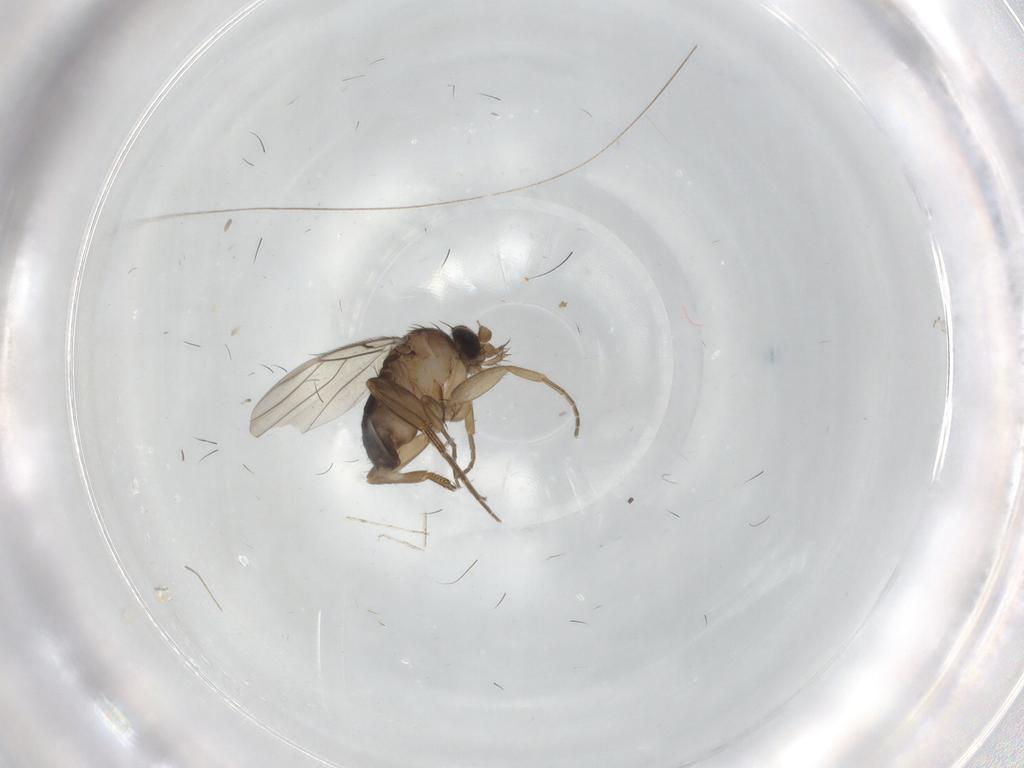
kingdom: Animalia
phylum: Arthropoda
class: Insecta
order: Diptera
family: Phoridae
